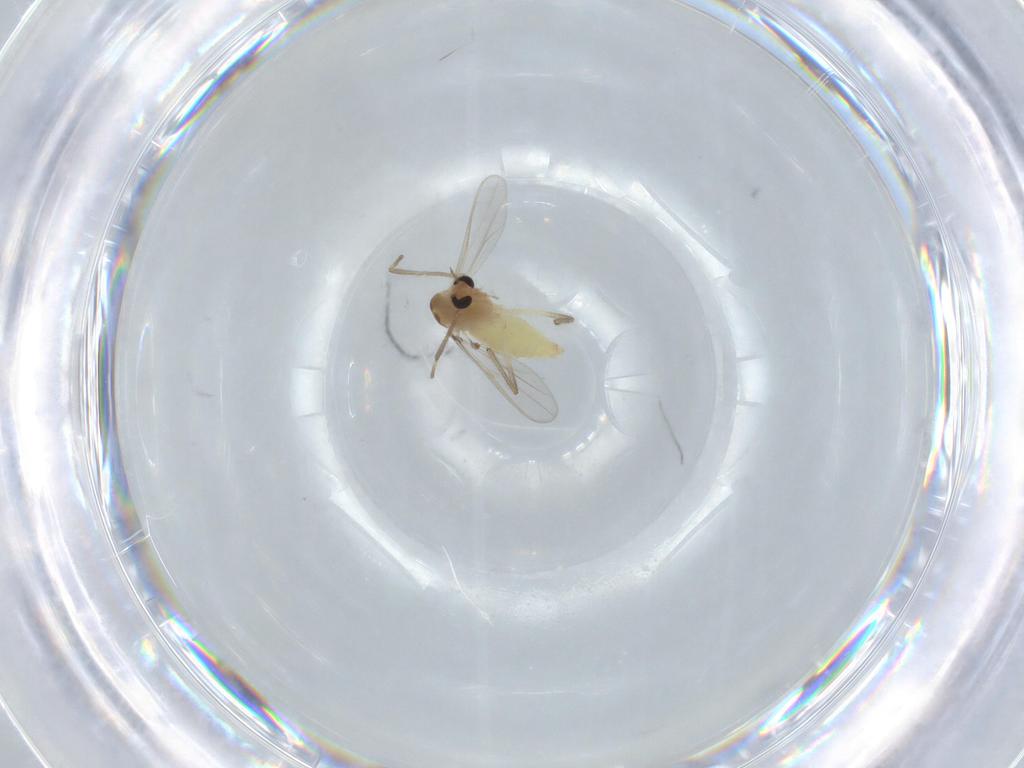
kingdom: Animalia
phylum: Arthropoda
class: Insecta
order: Diptera
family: Chironomidae
